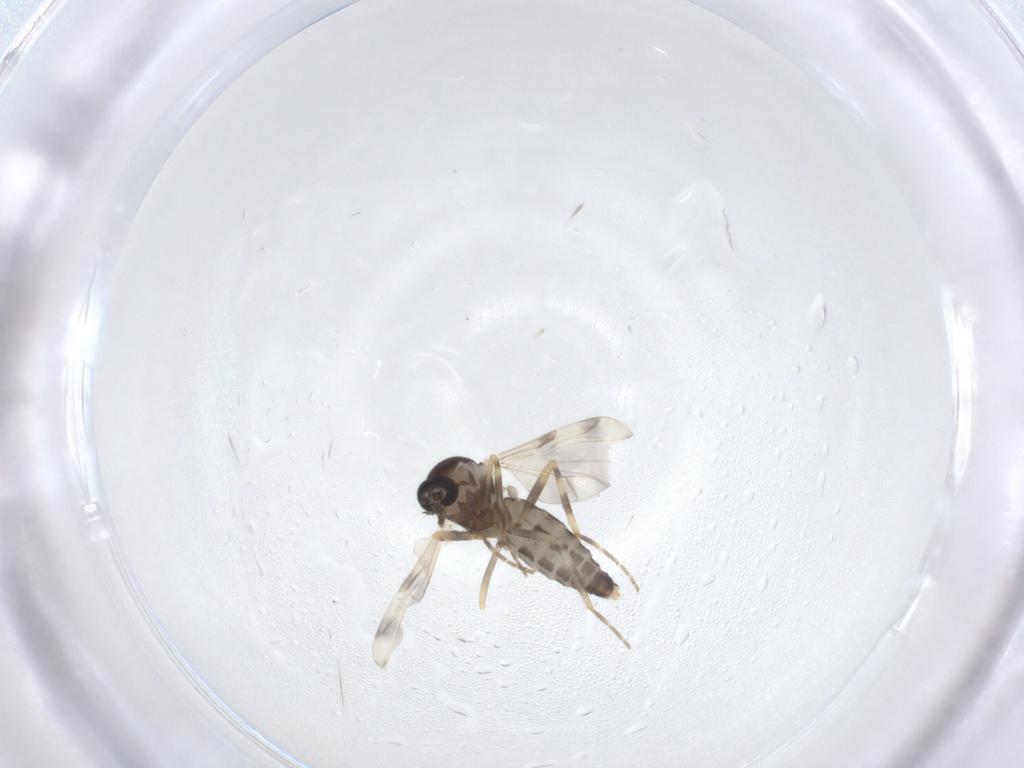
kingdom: Animalia
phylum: Arthropoda
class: Insecta
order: Diptera
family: Ceratopogonidae
